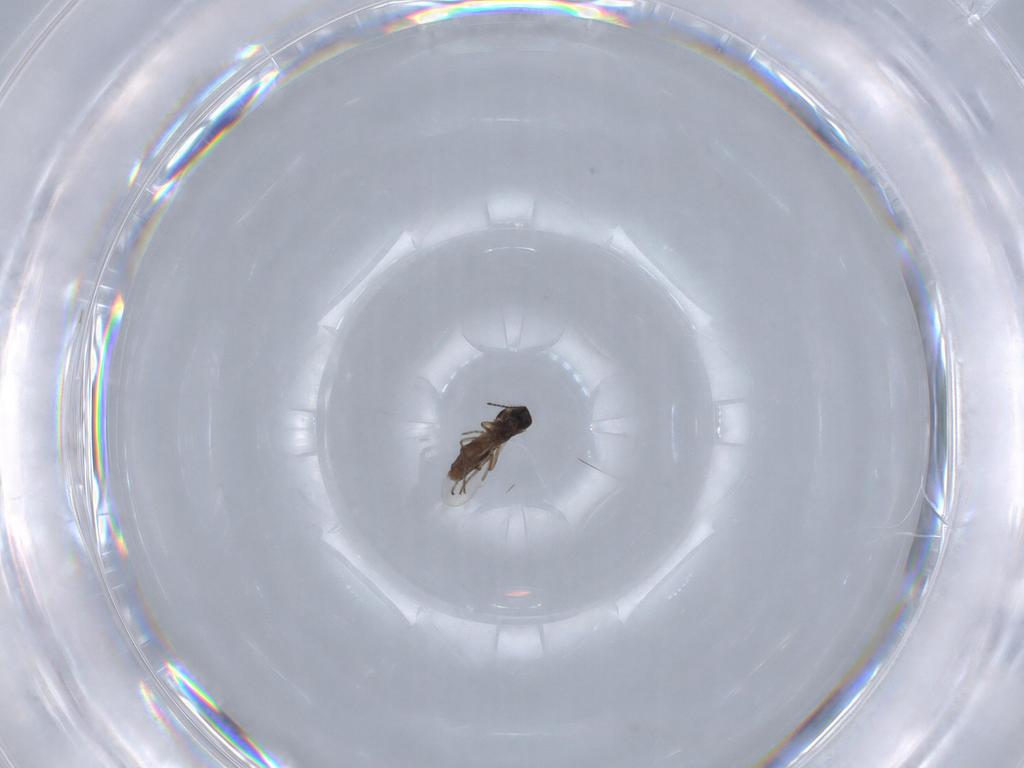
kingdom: Animalia
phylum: Arthropoda
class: Insecta
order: Diptera
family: Ceratopogonidae
